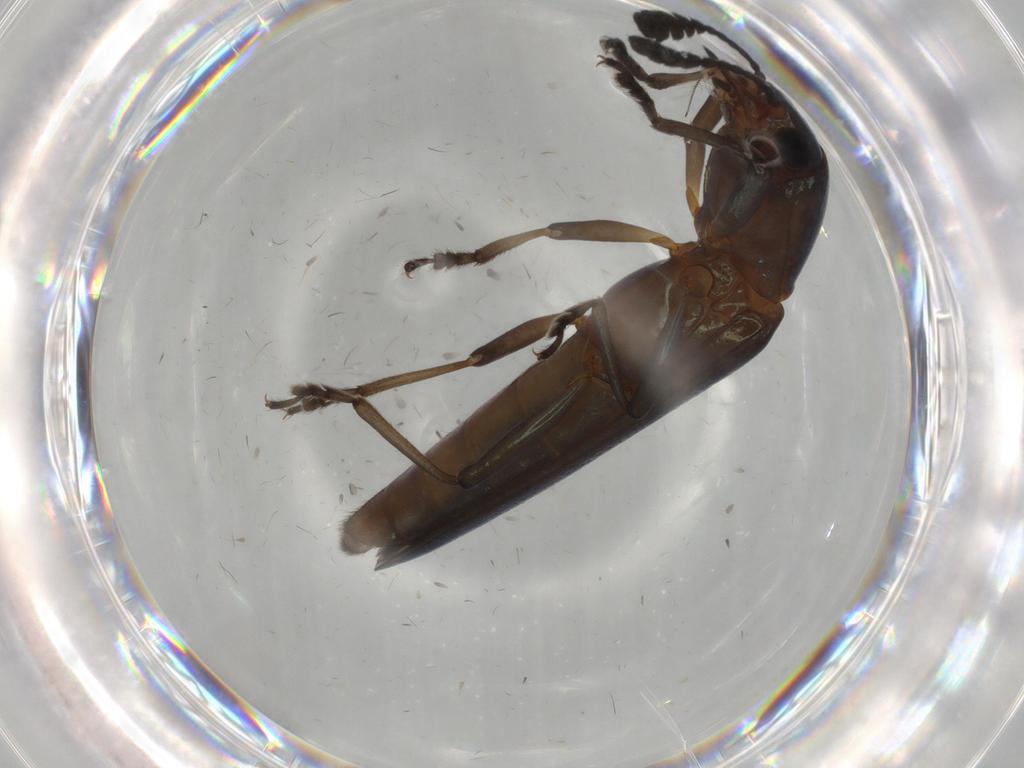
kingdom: Animalia
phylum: Arthropoda
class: Insecta
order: Coleoptera
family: Erotylidae
